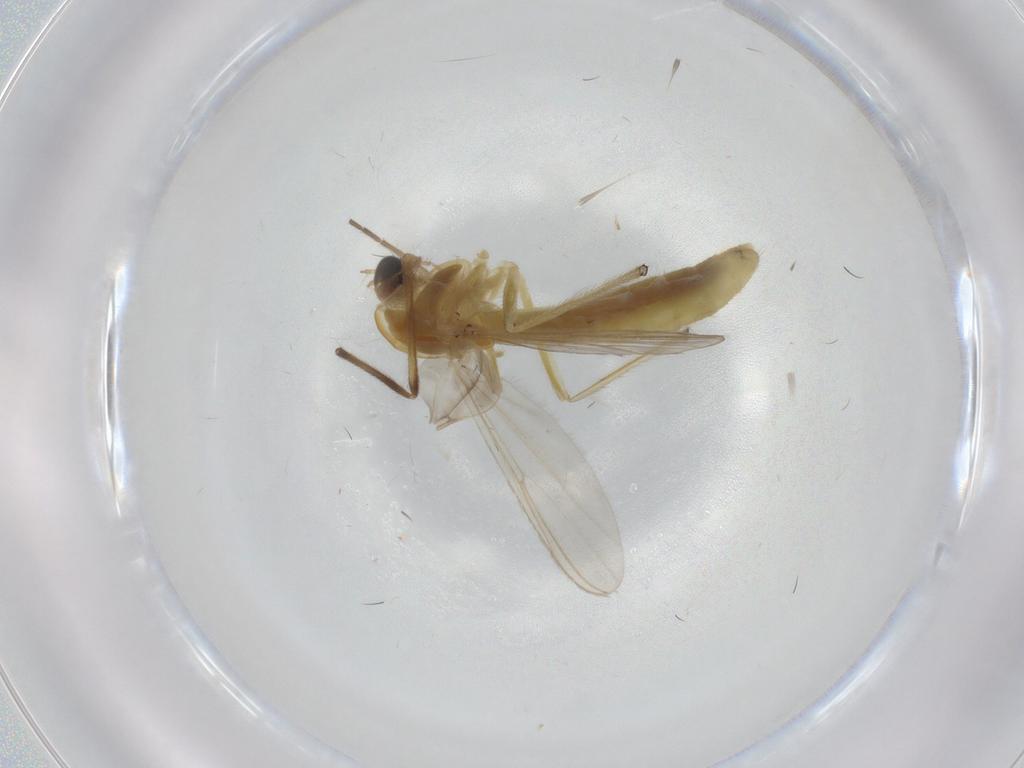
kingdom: Animalia
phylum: Arthropoda
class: Insecta
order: Diptera
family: Chironomidae
